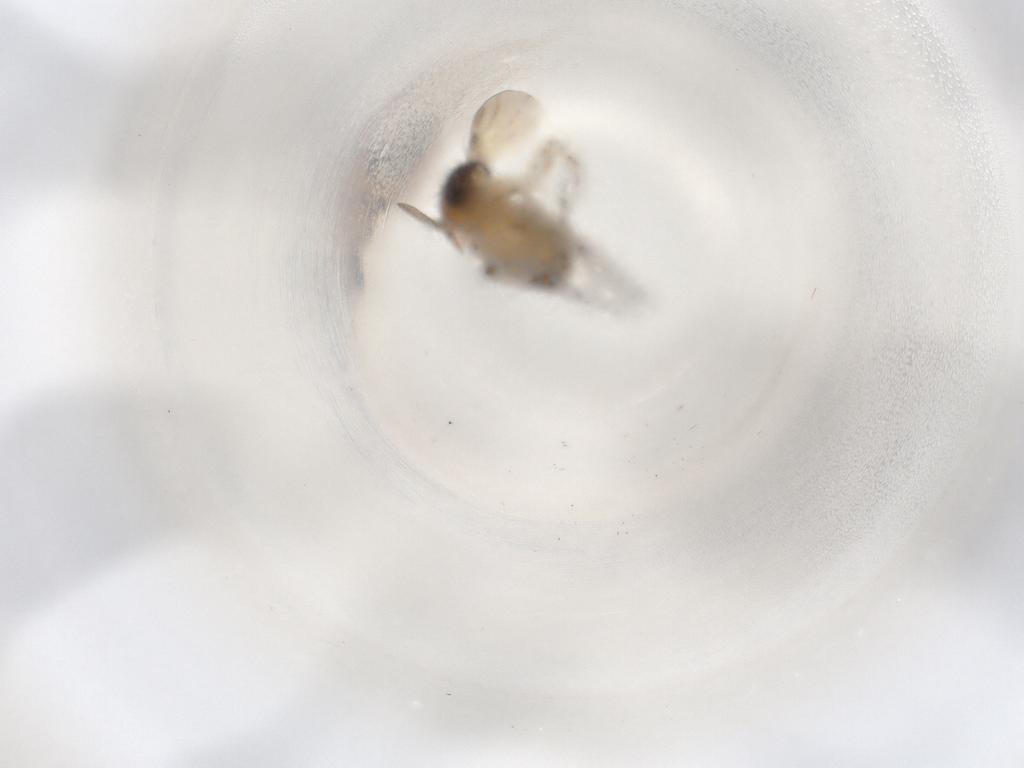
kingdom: Animalia
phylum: Arthropoda
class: Insecta
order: Diptera
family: Phoridae
